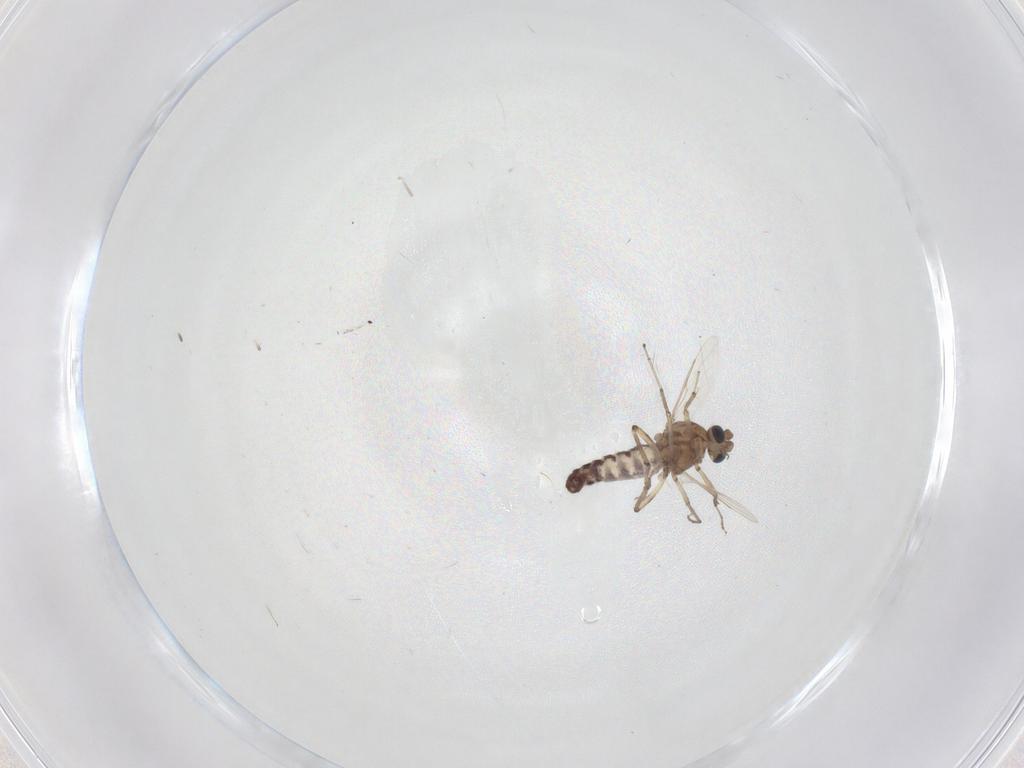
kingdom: Animalia
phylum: Arthropoda
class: Insecta
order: Diptera
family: Ceratopogonidae
